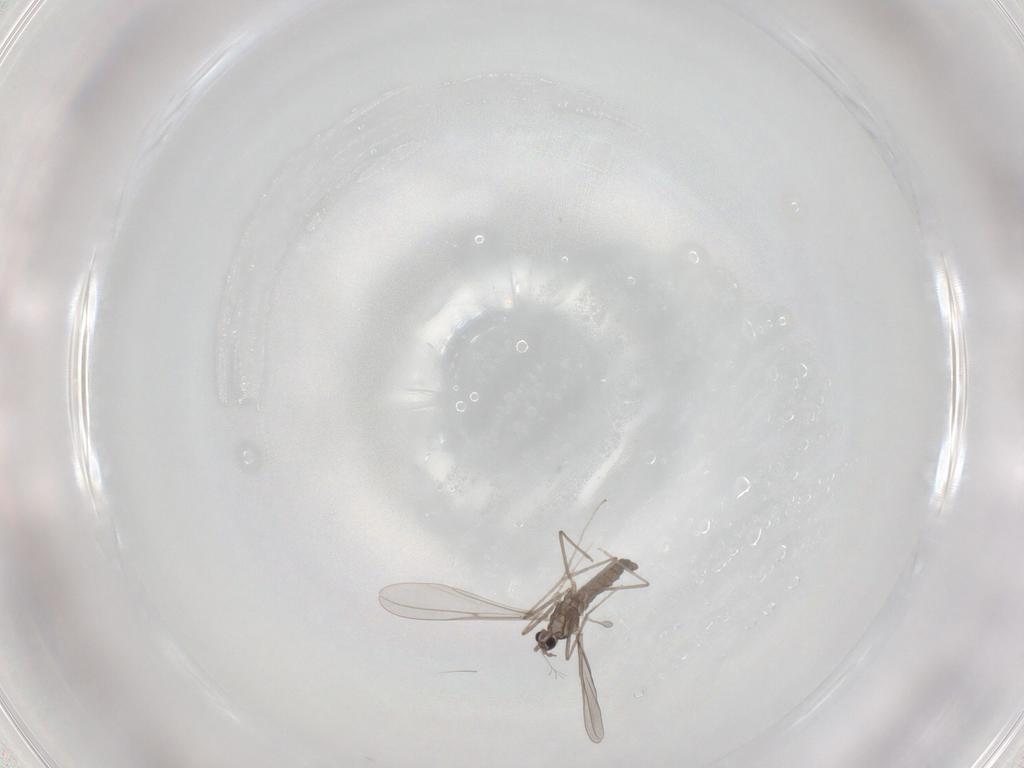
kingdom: Animalia
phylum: Arthropoda
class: Insecta
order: Diptera
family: Cecidomyiidae
